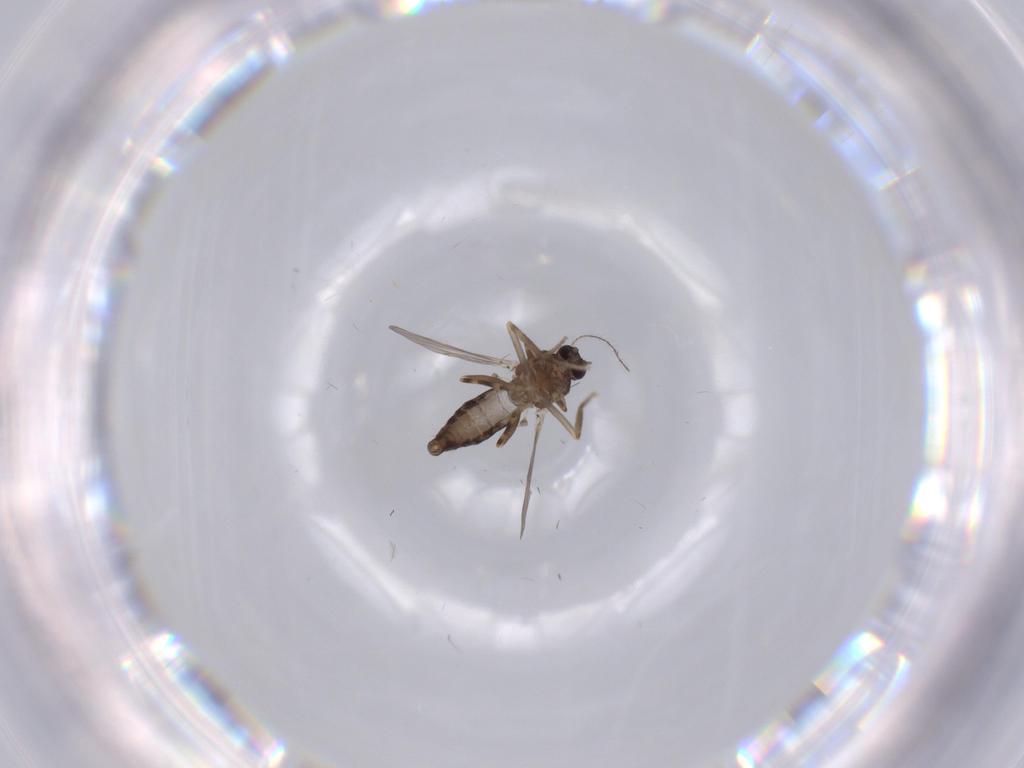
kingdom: Animalia
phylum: Arthropoda
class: Insecta
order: Diptera
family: Ceratopogonidae
